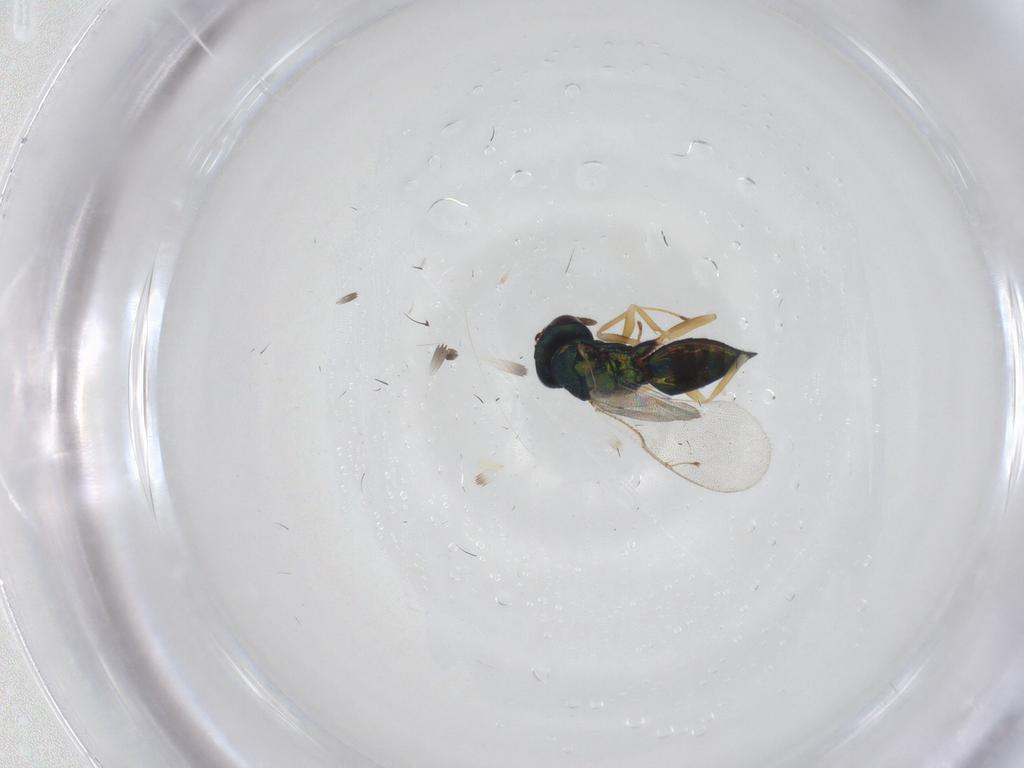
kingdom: Animalia
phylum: Arthropoda
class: Insecta
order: Hymenoptera
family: Pteromalidae
